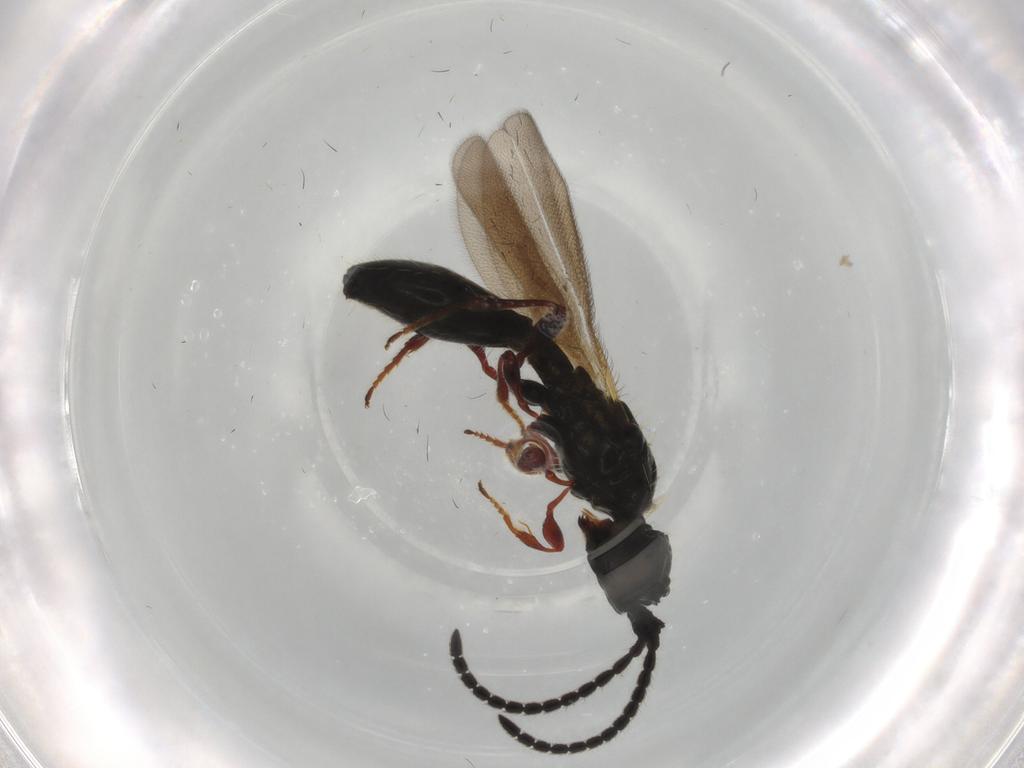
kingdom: Animalia
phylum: Arthropoda
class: Insecta
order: Hymenoptera
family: Diapriidae
